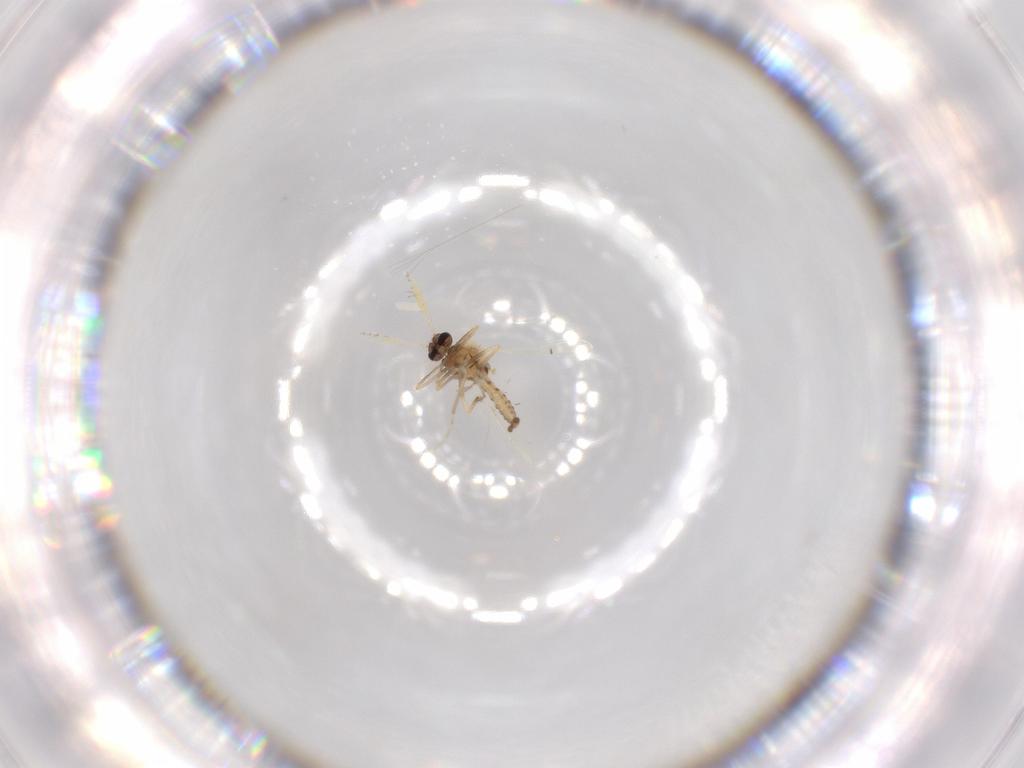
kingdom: Animalia
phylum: Arthropoda
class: Insecta
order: Diptera
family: Ceratopogonidae
